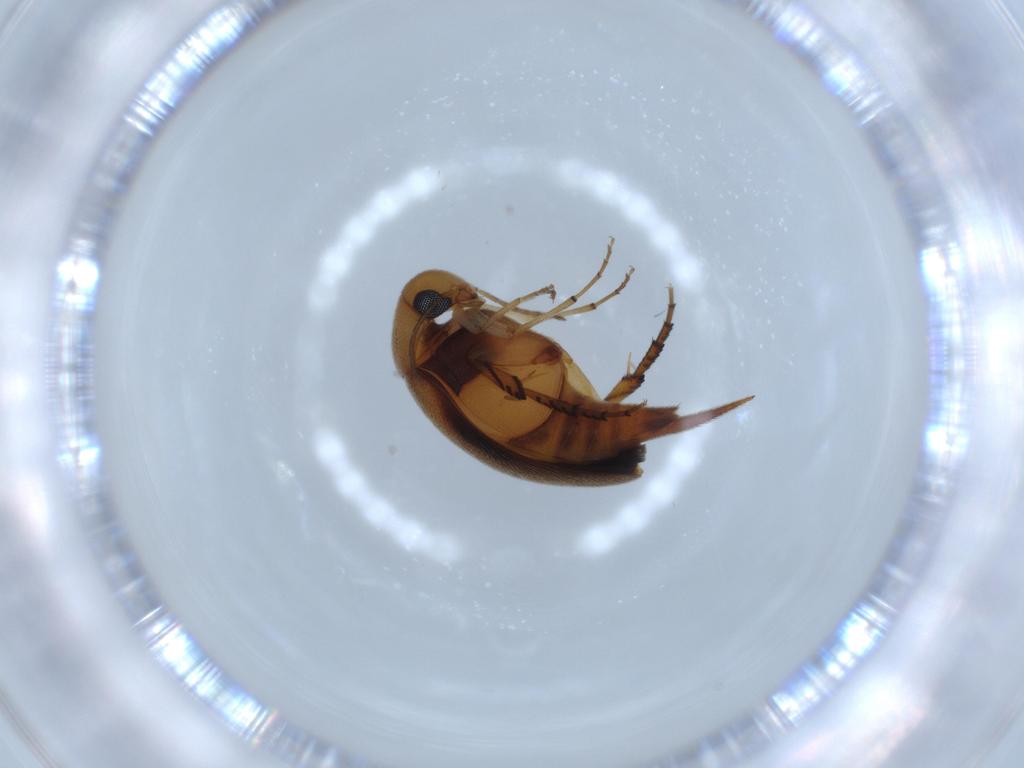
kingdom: Animalia
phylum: Arthropoda
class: Insecta
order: Coleoptera
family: Mordellidae
